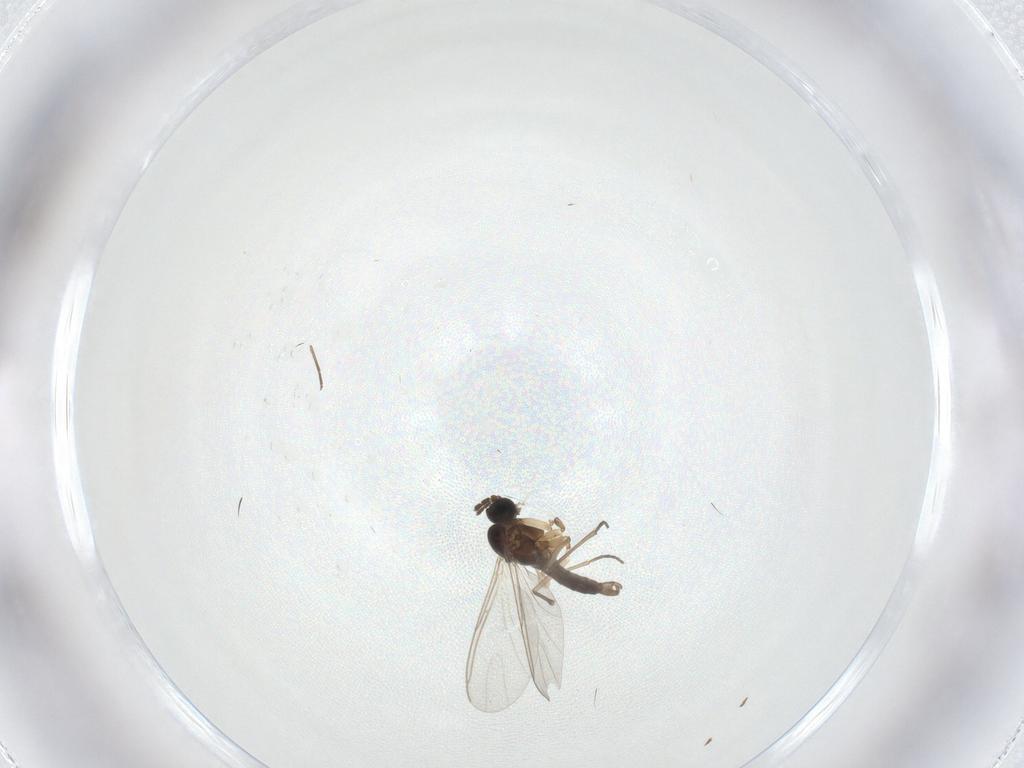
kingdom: Animalia
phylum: Arthropoda
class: Insecta
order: Diptera
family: Sciaridae
